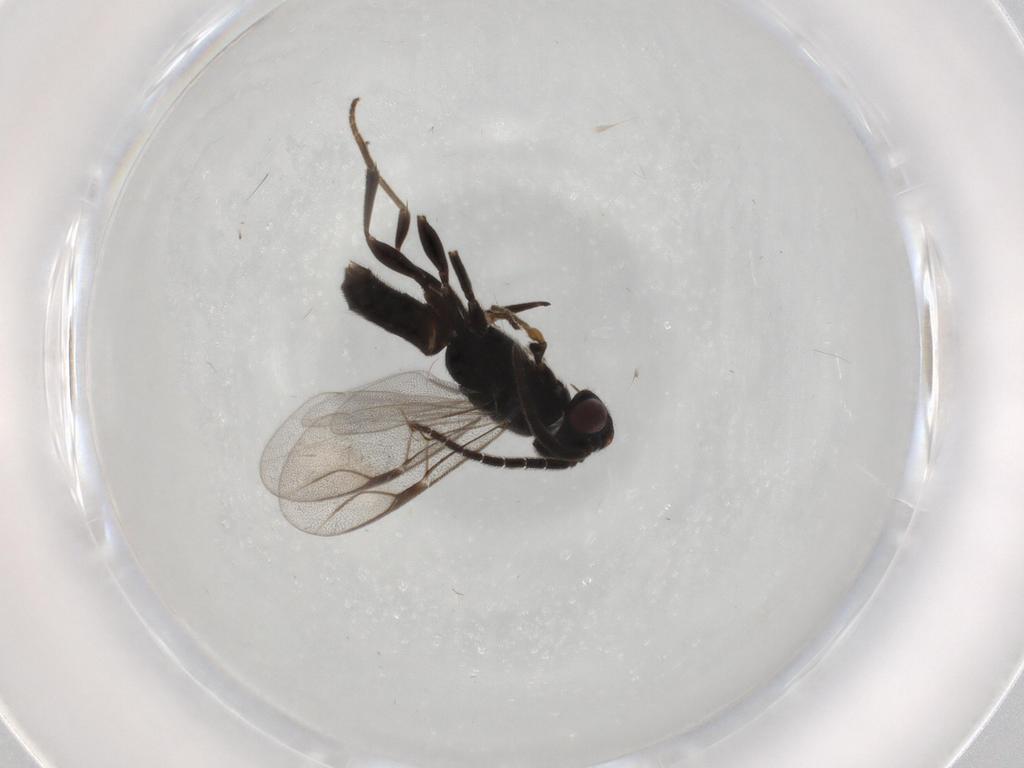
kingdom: Animalia
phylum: Arthropoda
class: Insecta
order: Hymenoptera
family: Dryinidae
